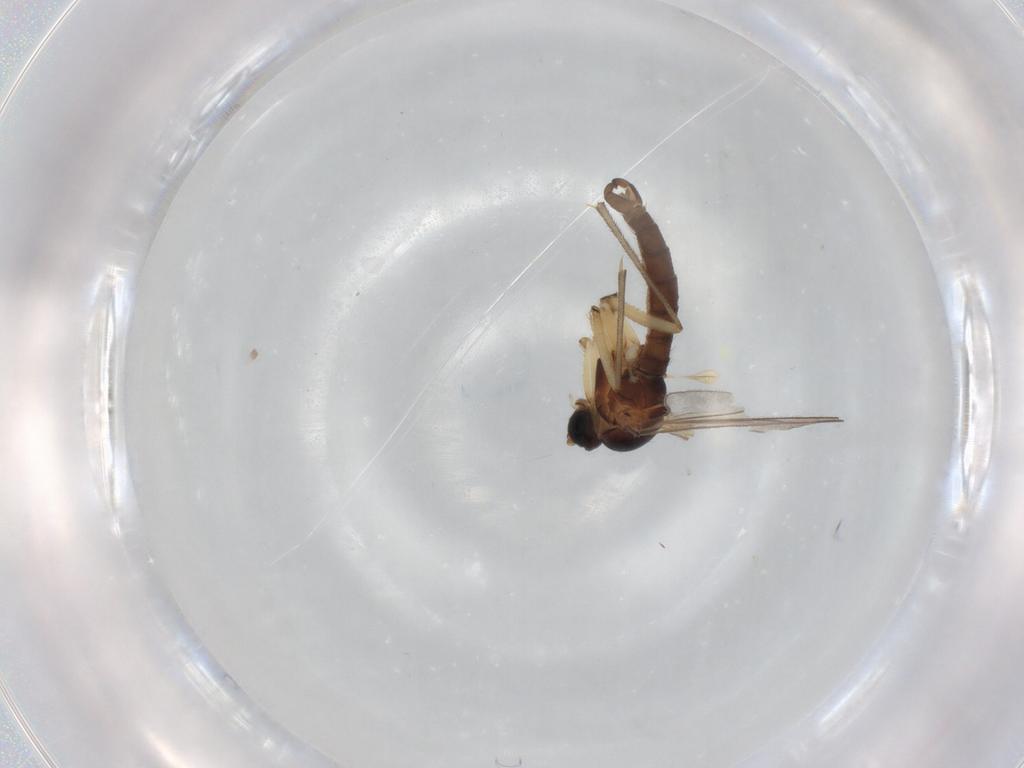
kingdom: Animalia
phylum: Arthropoda
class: Insecta
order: Diptera
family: Sciaridae
